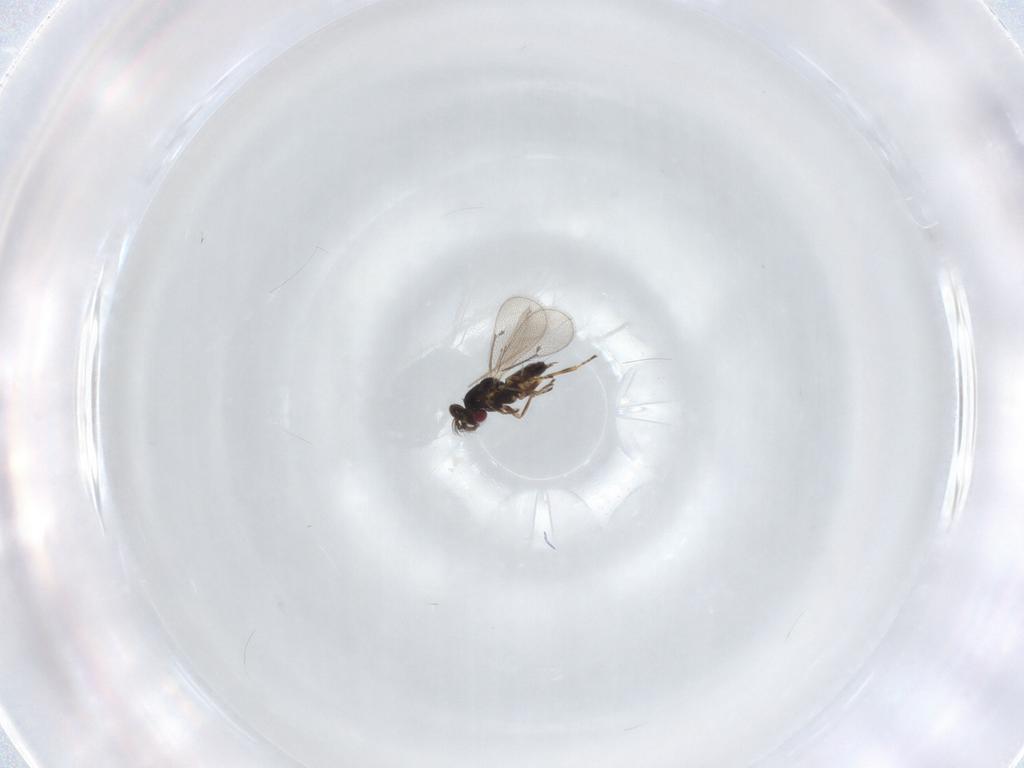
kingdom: Animalia
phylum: Arthropoda
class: Insecta
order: Hymenoptera
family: Eulophidae
